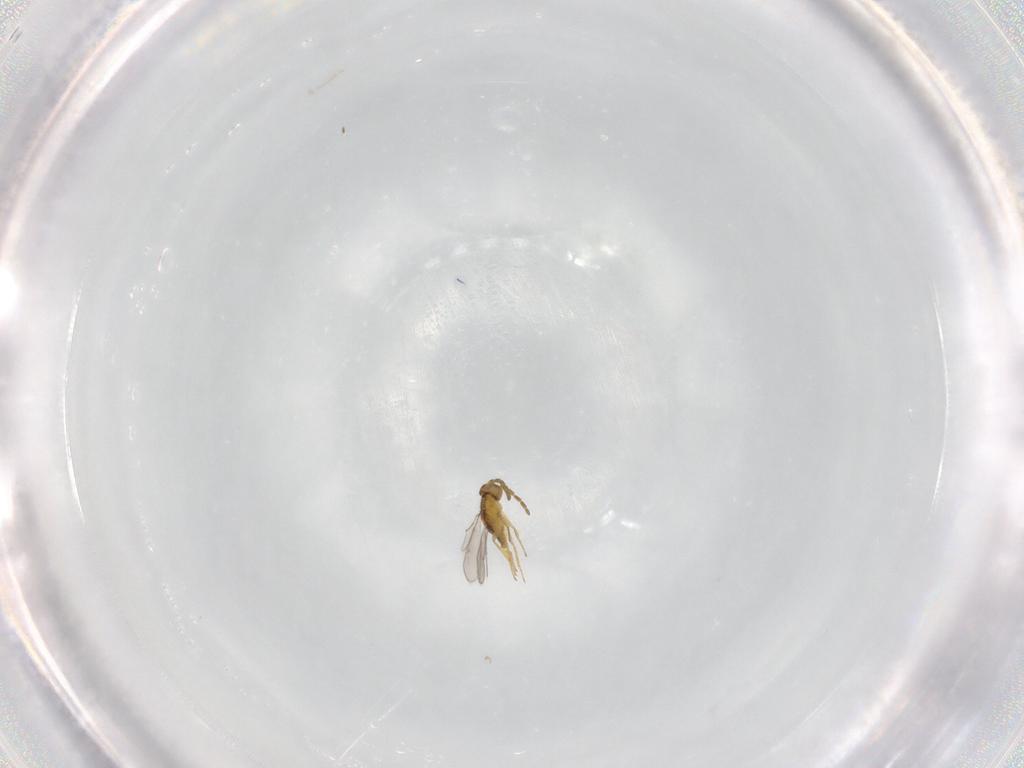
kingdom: Animalia
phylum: Arthropoda
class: Insecta
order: Hymenoptera
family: Aphelinidae
